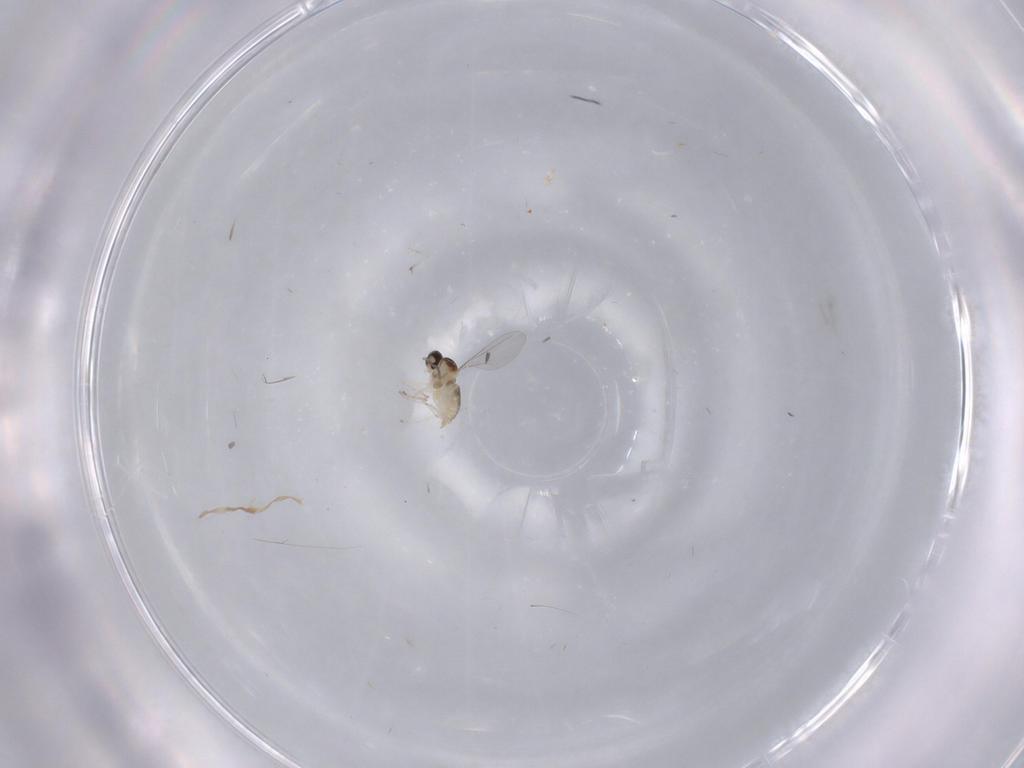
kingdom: Animalia
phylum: Arthropoda
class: Insecta
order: Diptera
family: Cecidomyiidae
